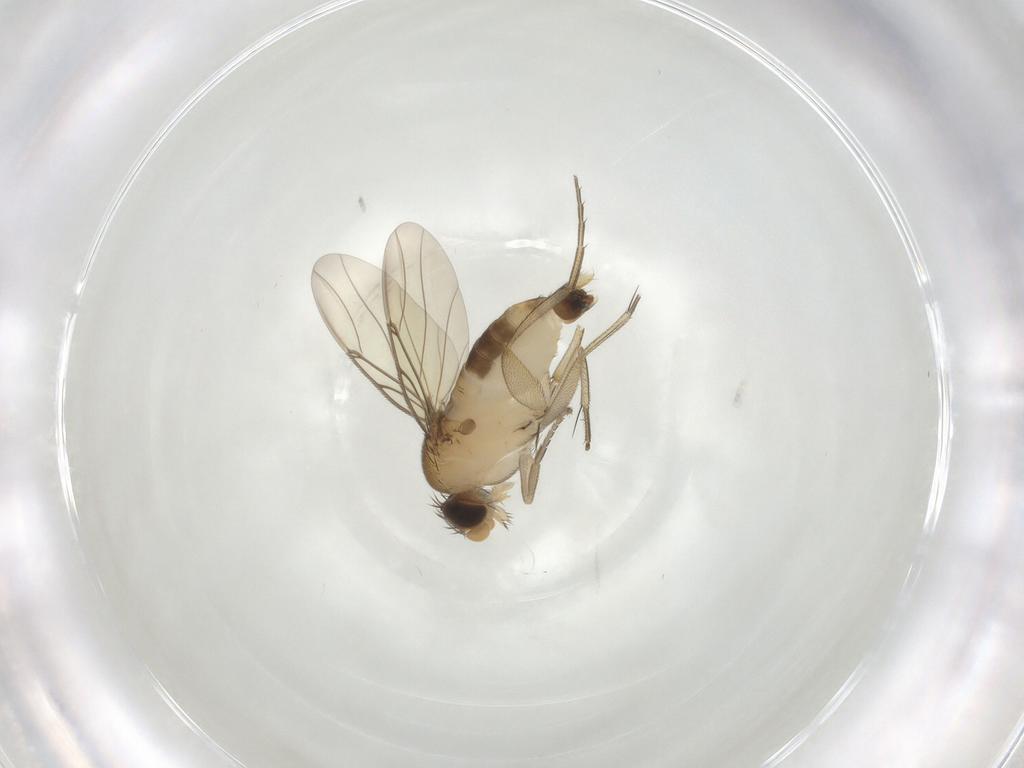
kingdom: Animalia
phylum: Arthropoda
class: Insecta
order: Diptera
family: Phoridae
